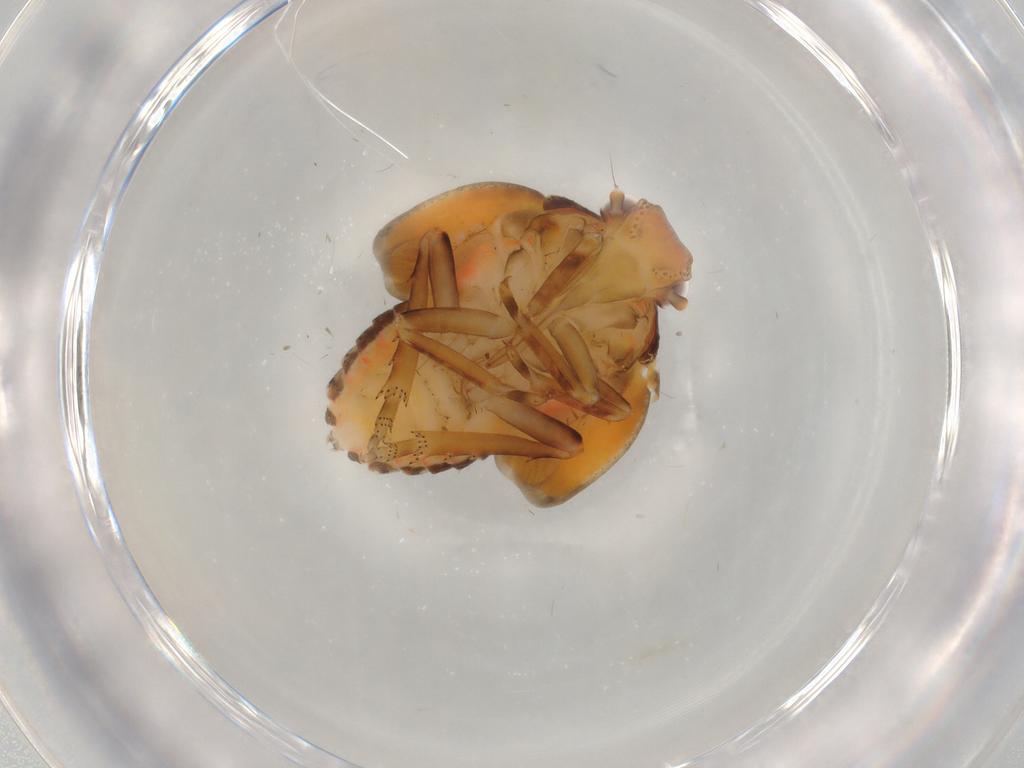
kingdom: Animalia
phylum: Arthropoda
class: Insecta
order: Hemiptera
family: Flatidae
